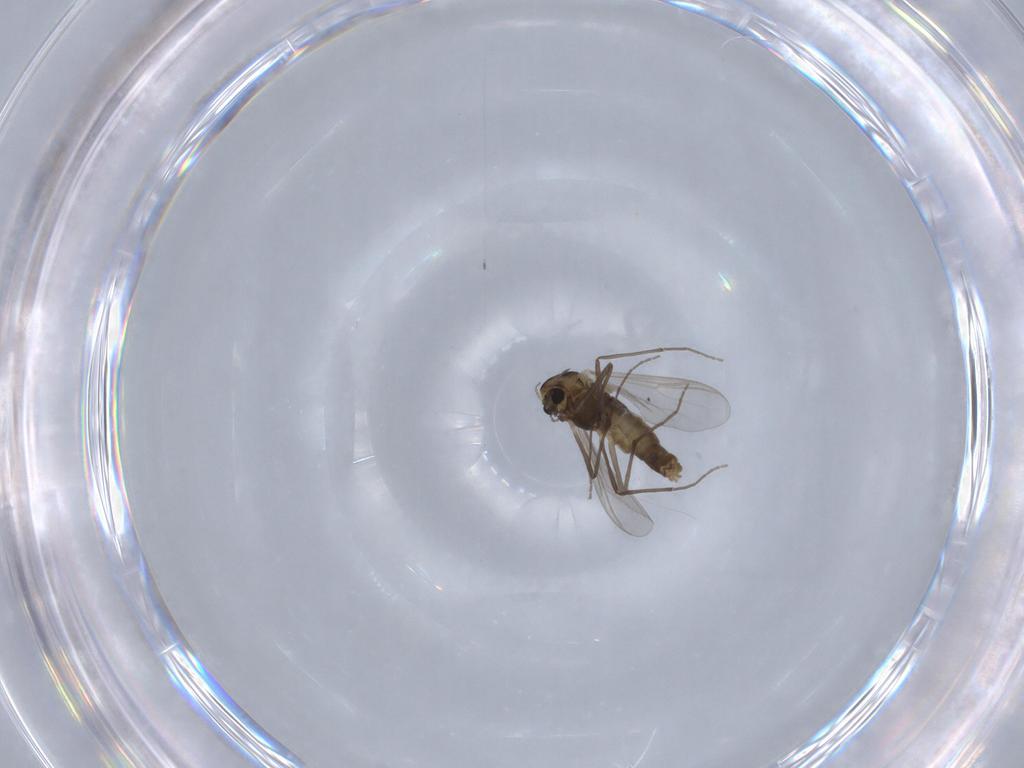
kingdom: Animalia
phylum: Arthropoda
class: Insecta
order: Diptera
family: Chironomidae
